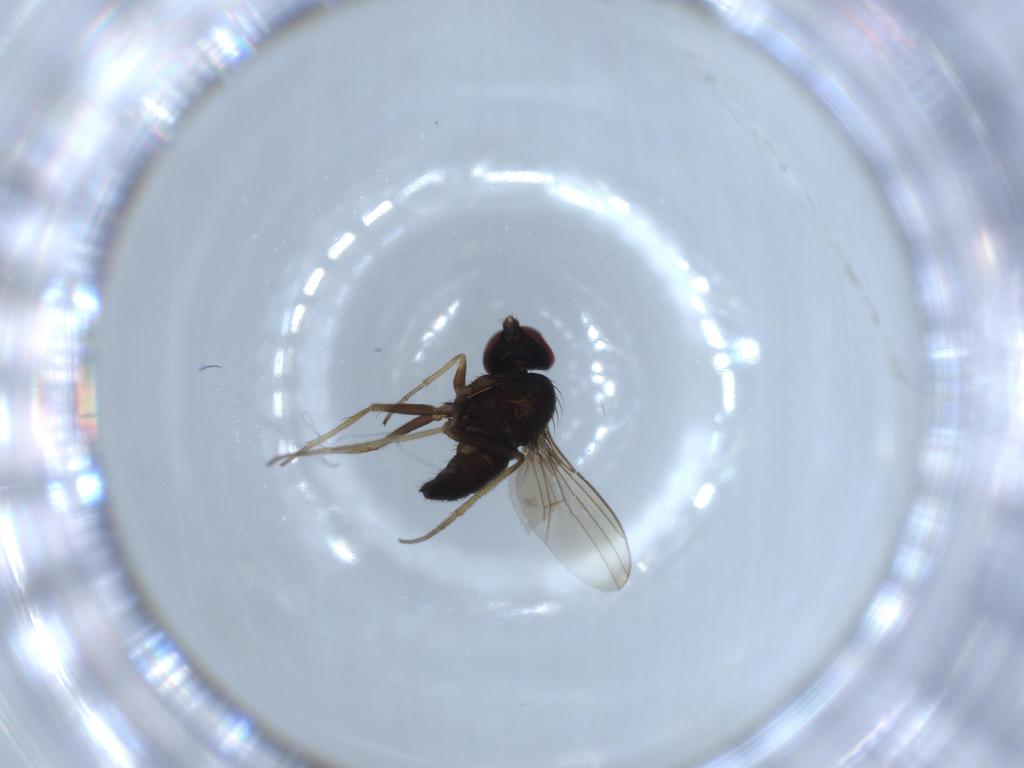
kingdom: Animalia
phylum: Arthropoda
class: Insecta
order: Diptera
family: Dolichopodidae
